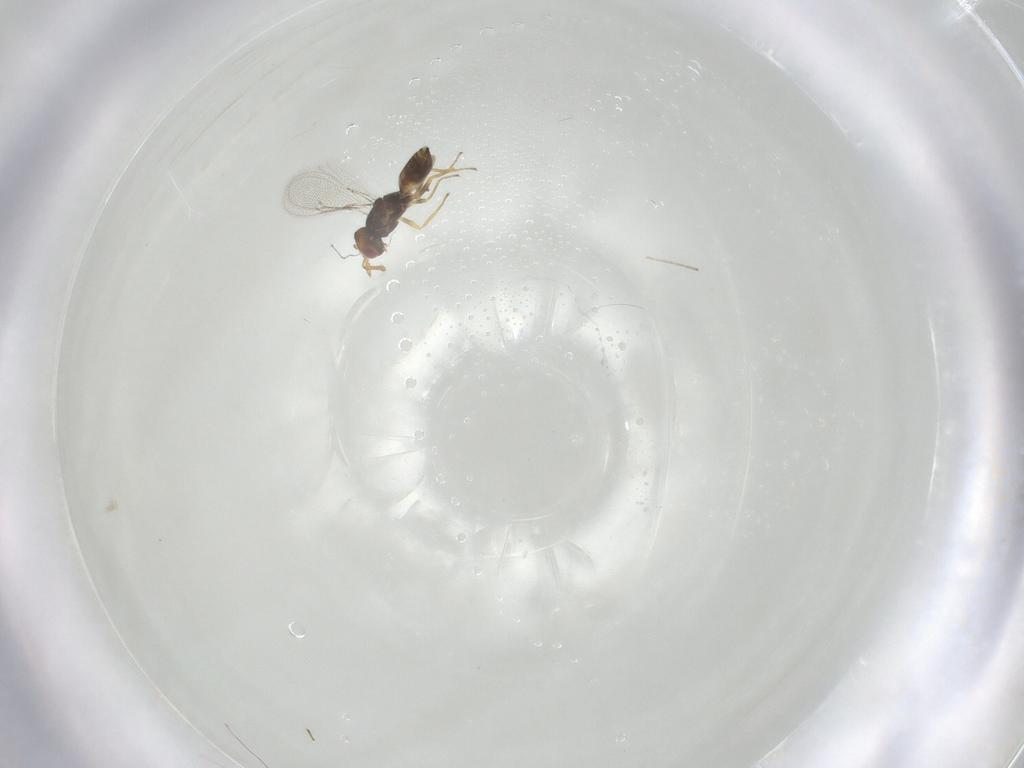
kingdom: Animalia
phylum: Arthropoda
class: Insecta
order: Hymenoptera
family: Eulophidae
